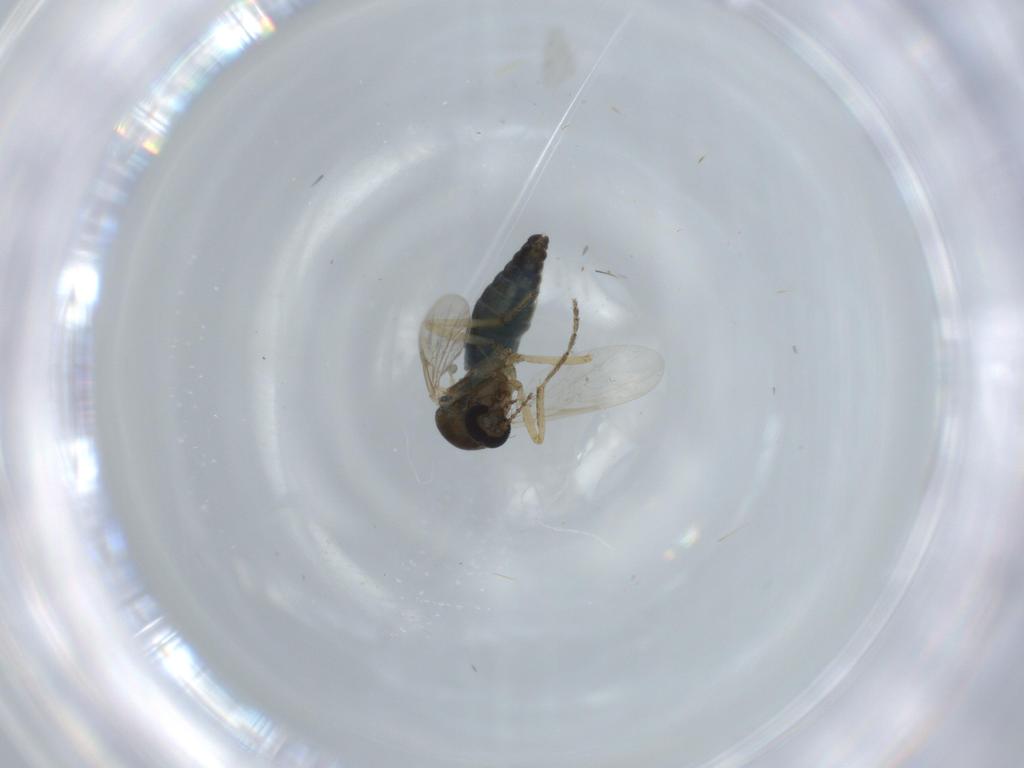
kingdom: Animalia
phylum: Arthropoda
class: Insecta
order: Diptera
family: Ceratopogonidae
